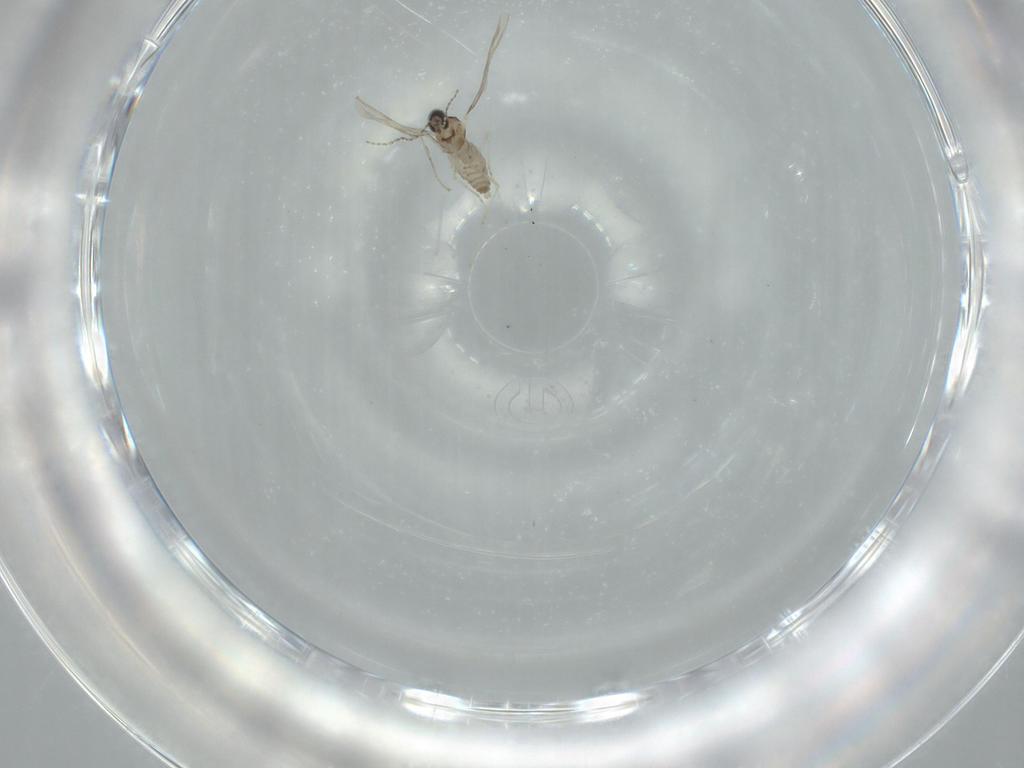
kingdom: Animalia
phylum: Arthropoda
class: Insecta
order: Diptera
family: Cecidomyiidae
